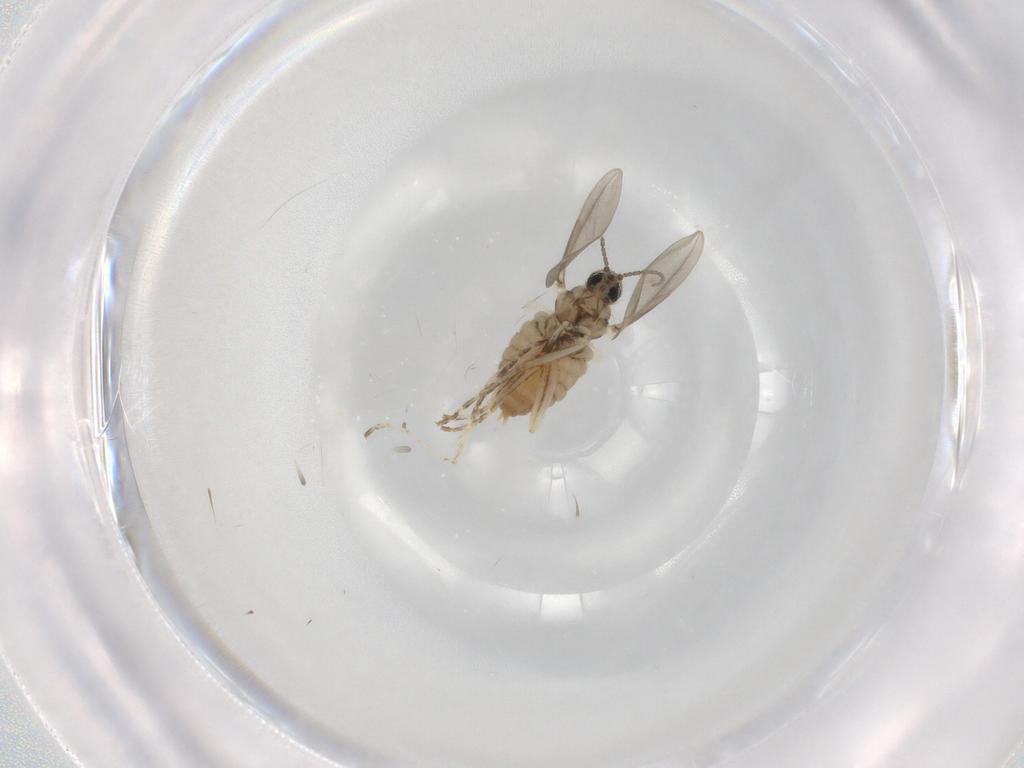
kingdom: Animalia
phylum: Arthropoda
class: Insecta
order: Diptera
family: Cecidomyiidae
